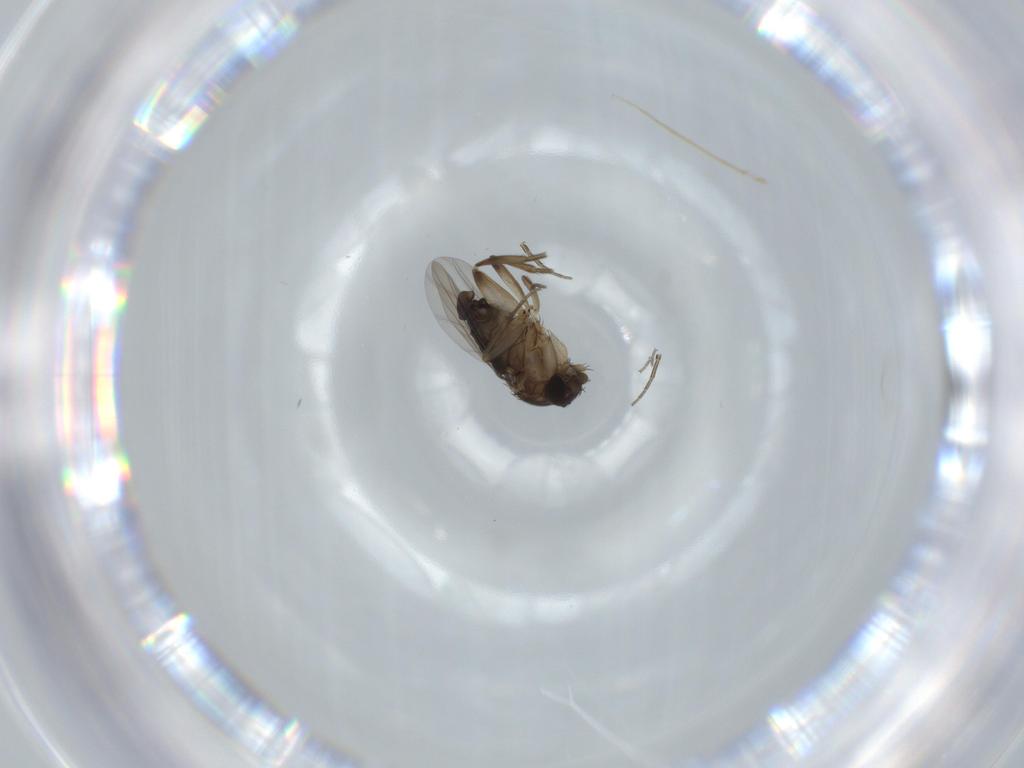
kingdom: Animalia
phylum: Arthropoda
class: Insecta
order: Diptera
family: Phoridae
